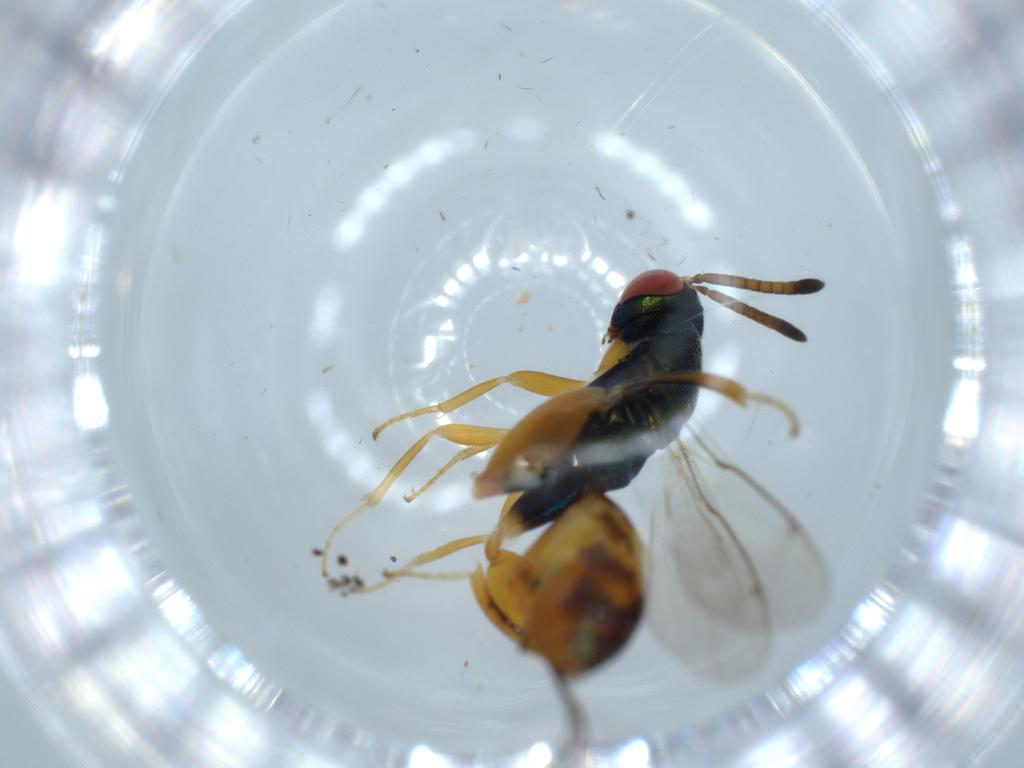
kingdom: Animalia
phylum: Arthropoda
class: Insecta
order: Hymenoptera
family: Torymidae
